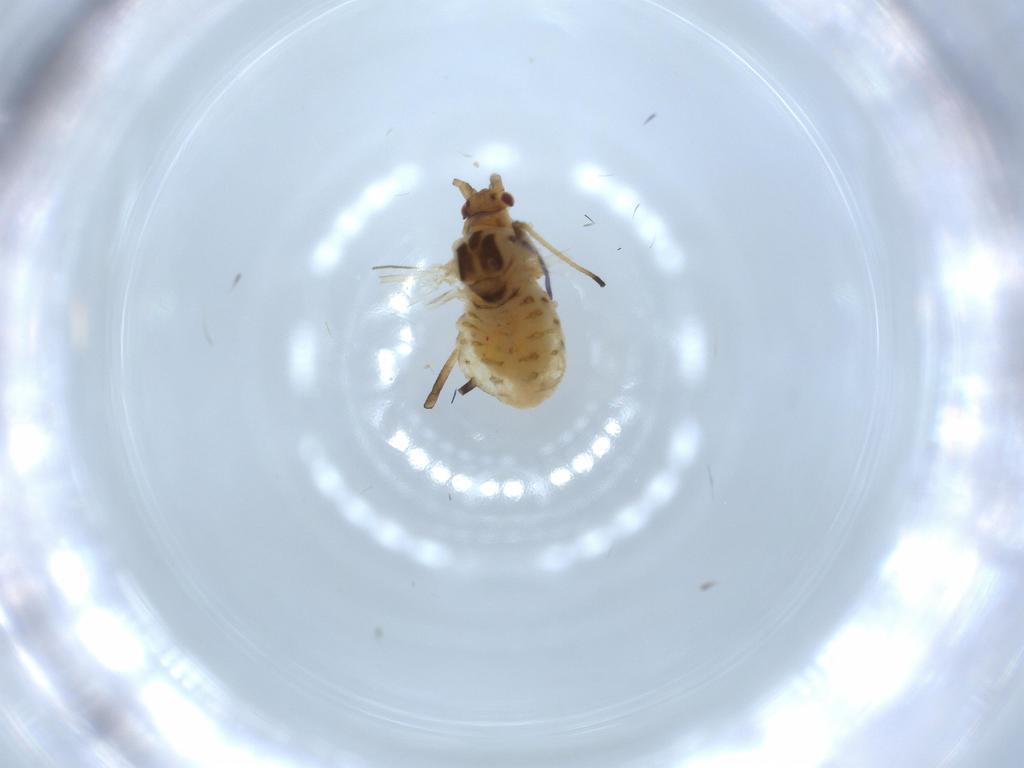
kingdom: Animalia
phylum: Arthropoda
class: Insecta
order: Hemiptera
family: Aphididae
